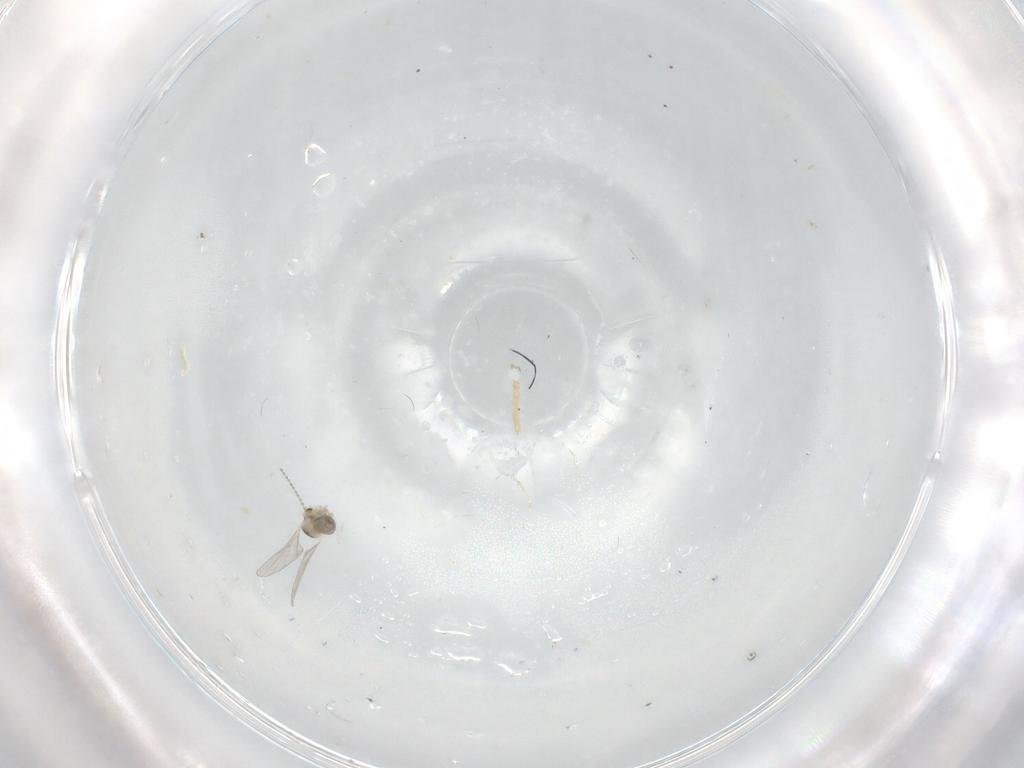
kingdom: Animalia
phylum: Arthropoda
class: Insecta
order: Diptera
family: Cecidomyiidae
